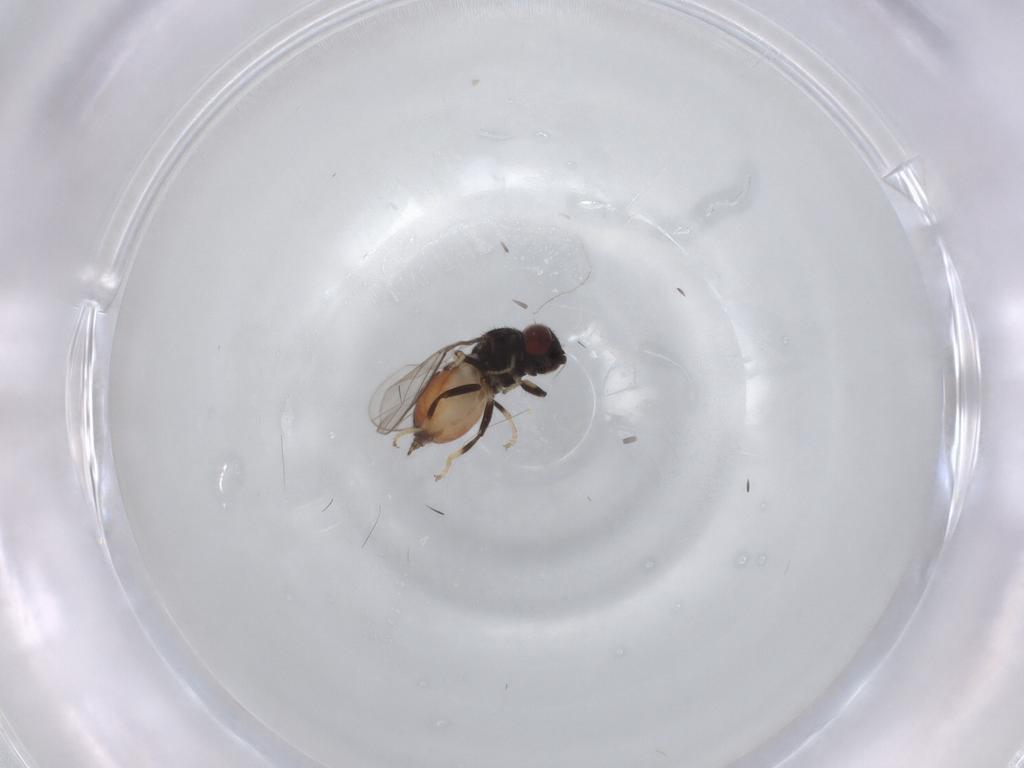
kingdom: Animalia
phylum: Arthropoda
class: Insecta
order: Diptera
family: Chloropidae
